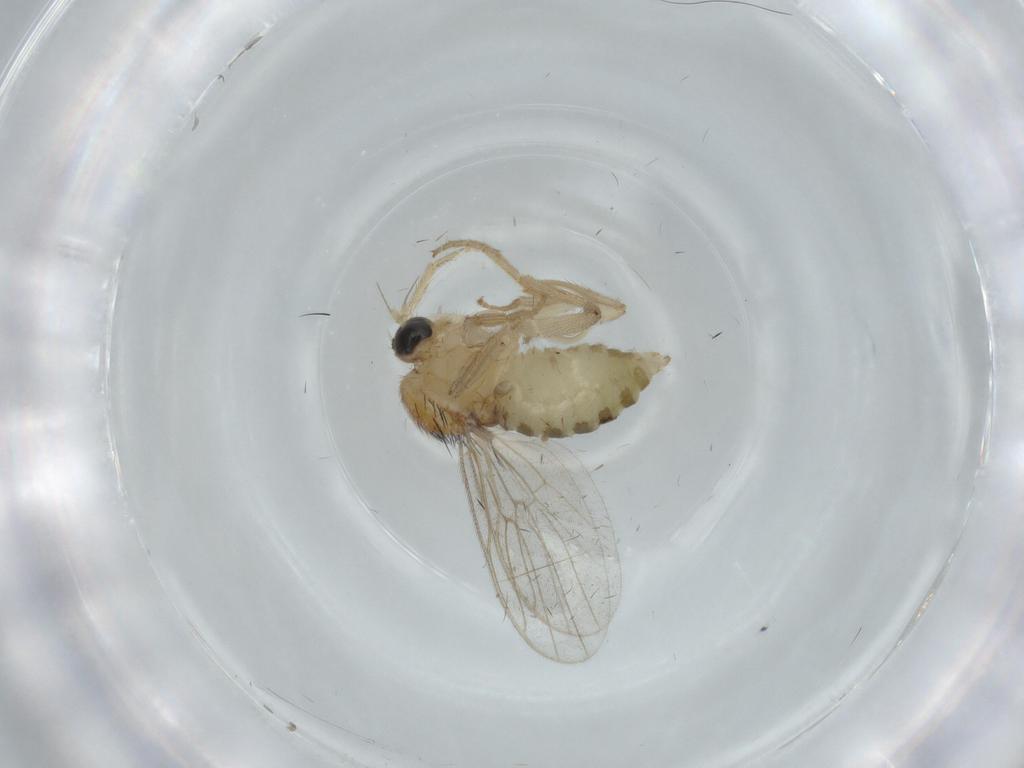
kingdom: Animalia
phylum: Arthropoda
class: Insecta
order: Diptera
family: Hybotidae
